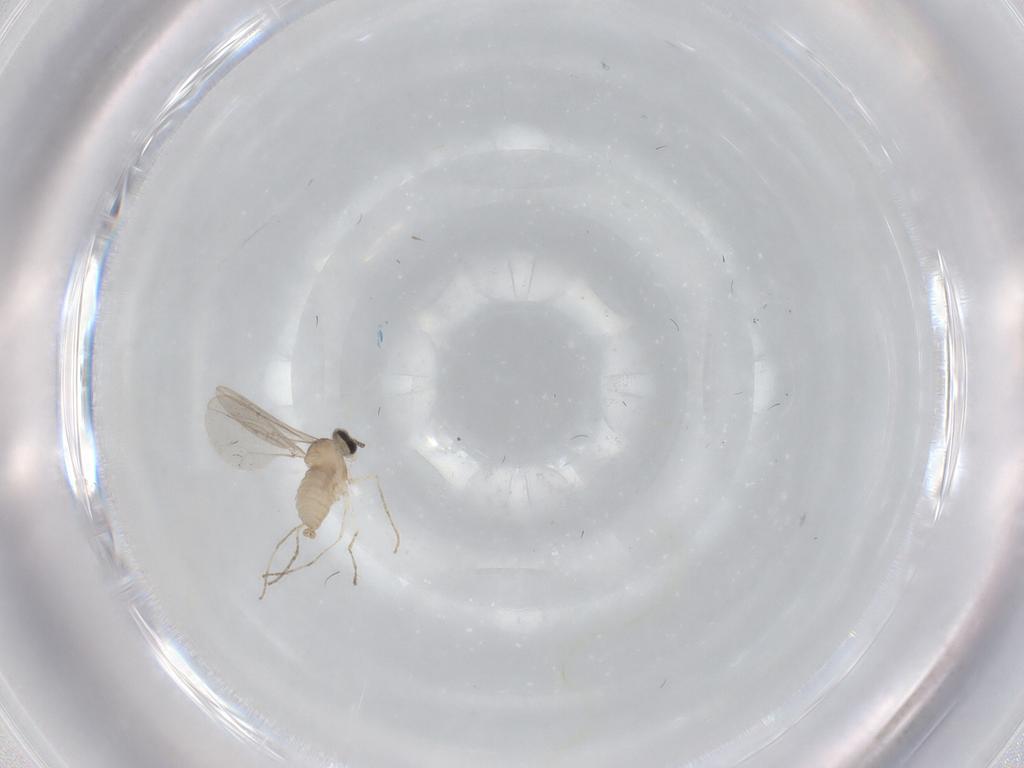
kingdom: Animalia
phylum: Arthropoda
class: Insecta
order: Diptera
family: Cecidomyiidae
